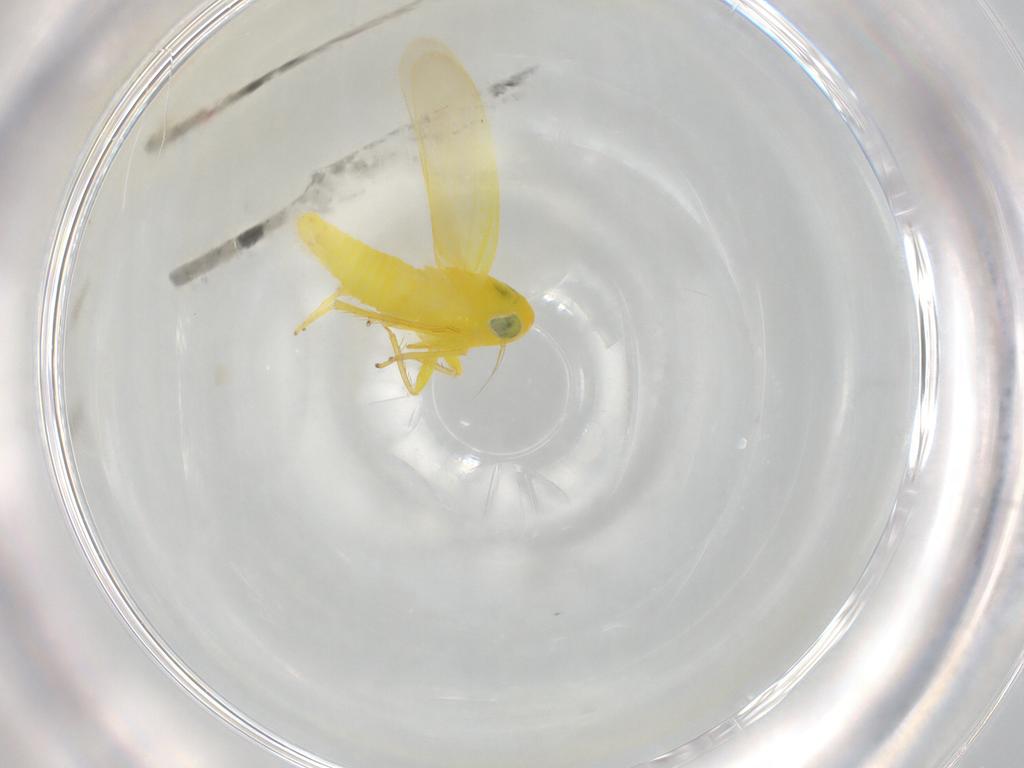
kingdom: Animalia
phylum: Arthropoda
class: Insecta
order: Hemiptera
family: Cicadellidae
